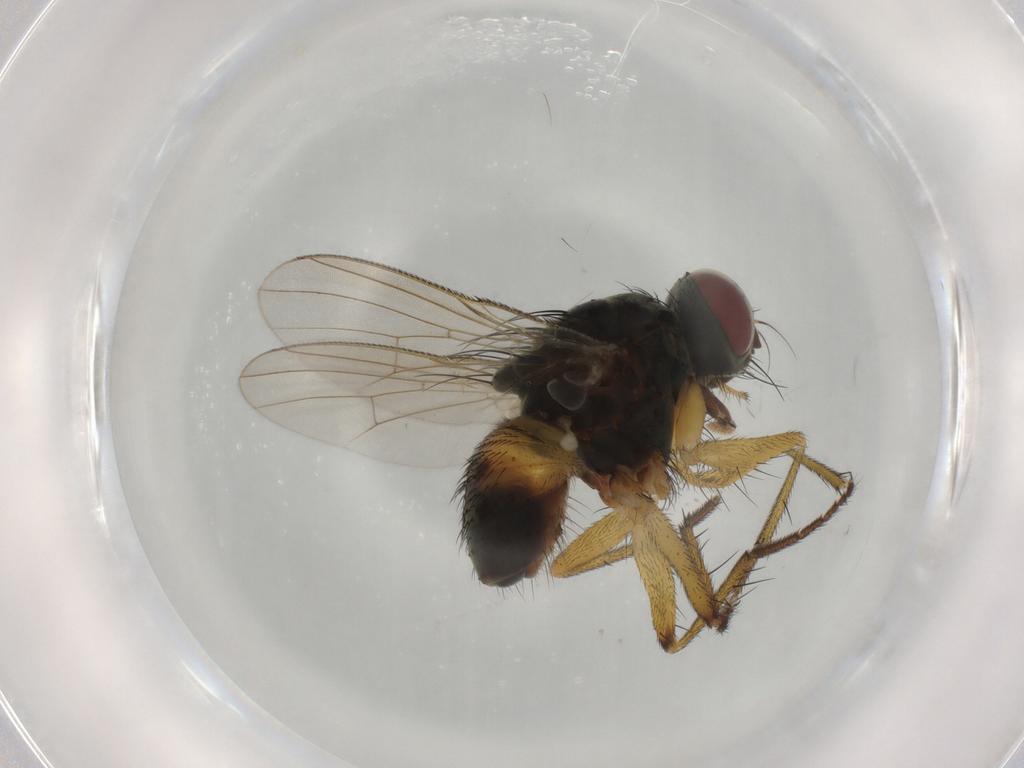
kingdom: Animalia
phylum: Arthropoda
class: Insecta
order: Diptera
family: Muscidae
